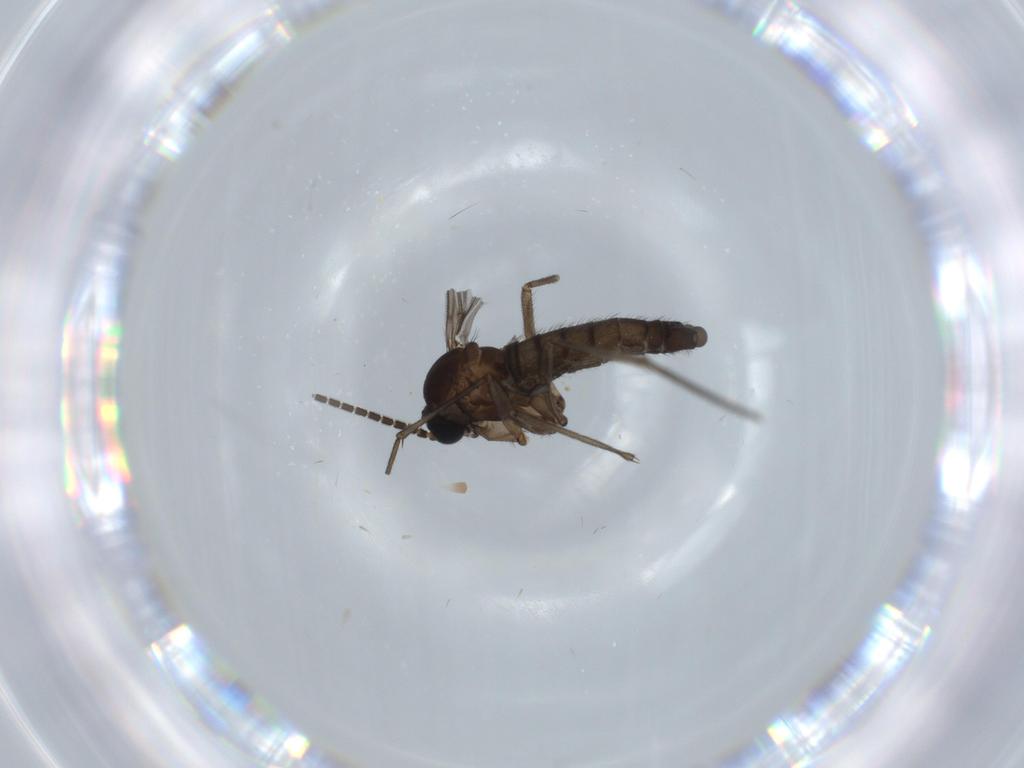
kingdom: Animalia
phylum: Arthropoda
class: Insecta
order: Diptera
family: Sciaridae
